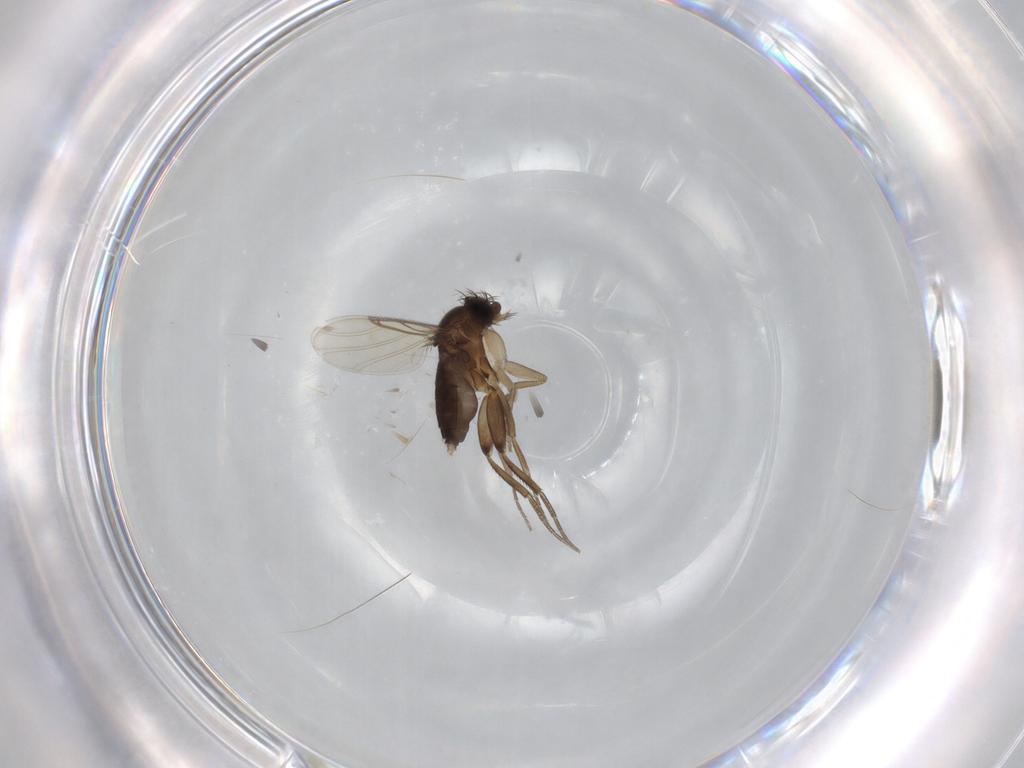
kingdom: Animalia
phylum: Arthropoda
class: Insecta
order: Diptera
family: Phoridae
